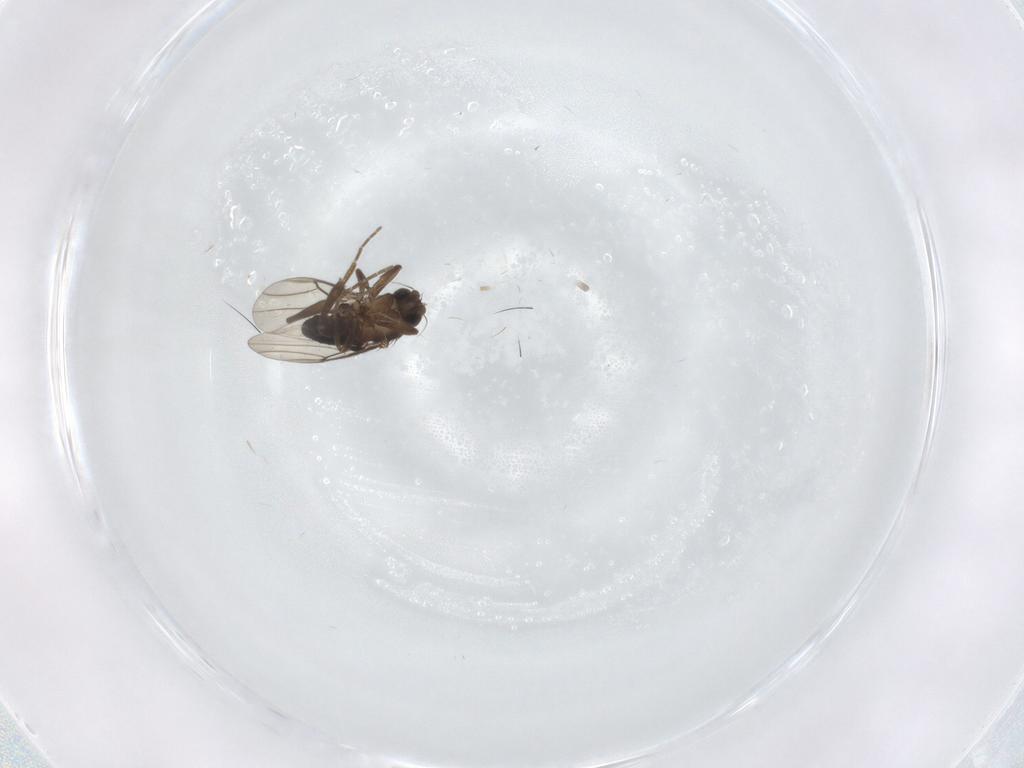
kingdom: Animalia
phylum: Arthropoda
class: Insecta
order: Diptera
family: Phoridae
